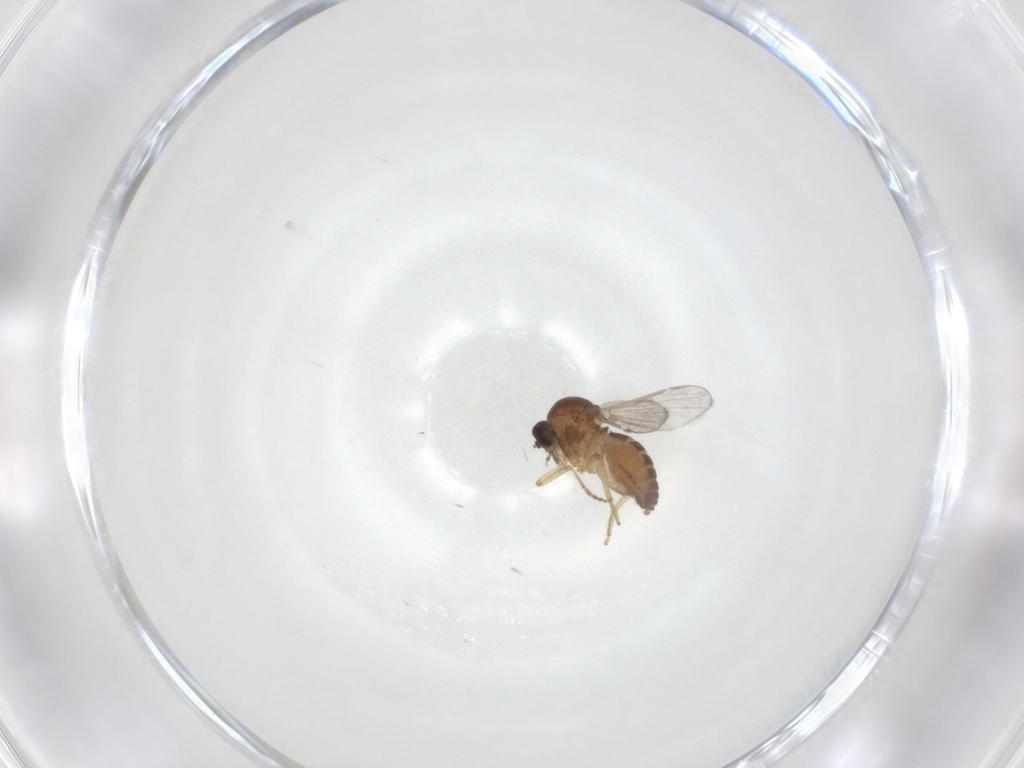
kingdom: Animalia
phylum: Arthropoda
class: Insecta
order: Diptera
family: Ceratopogonidae
